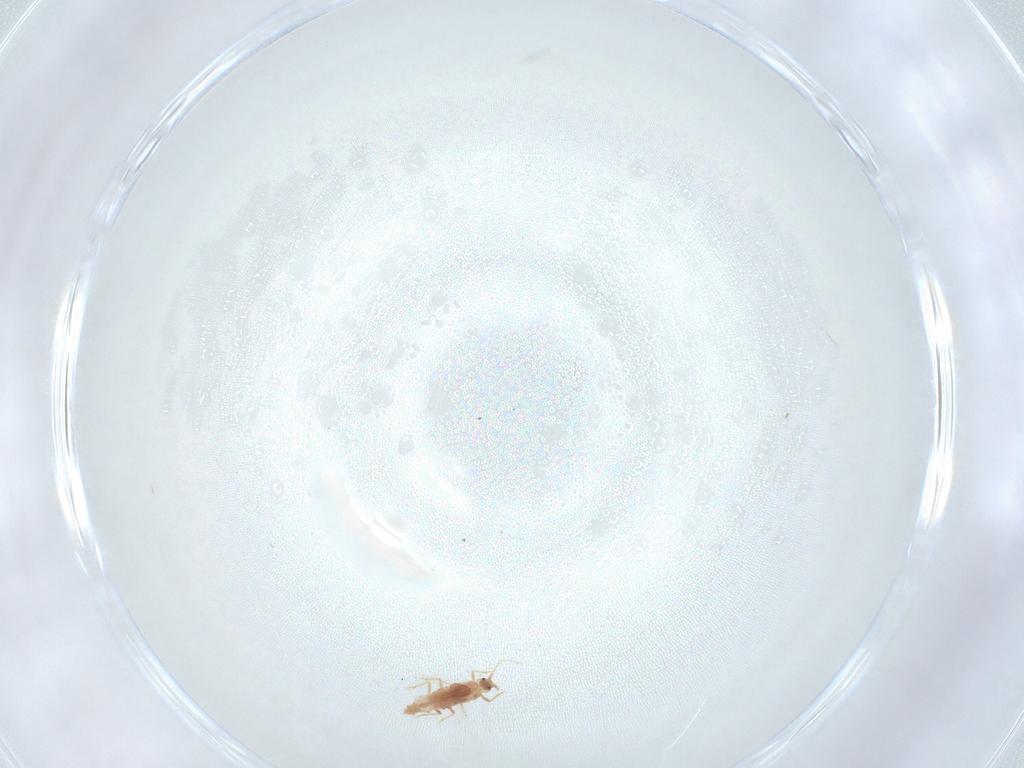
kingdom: Animalia
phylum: Arthropoda
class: Insecta
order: Diptera
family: Cecidomyiidae
